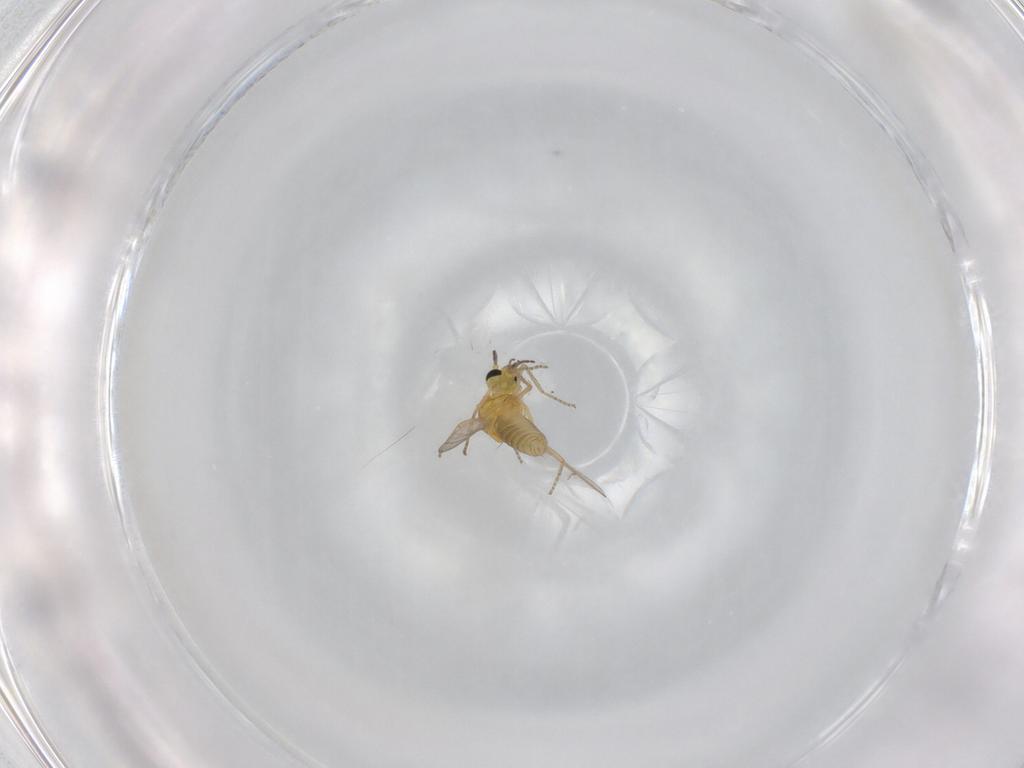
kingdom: Animalia
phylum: Arthropoda
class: Insecta
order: Diptera
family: Ceratopogonidae
